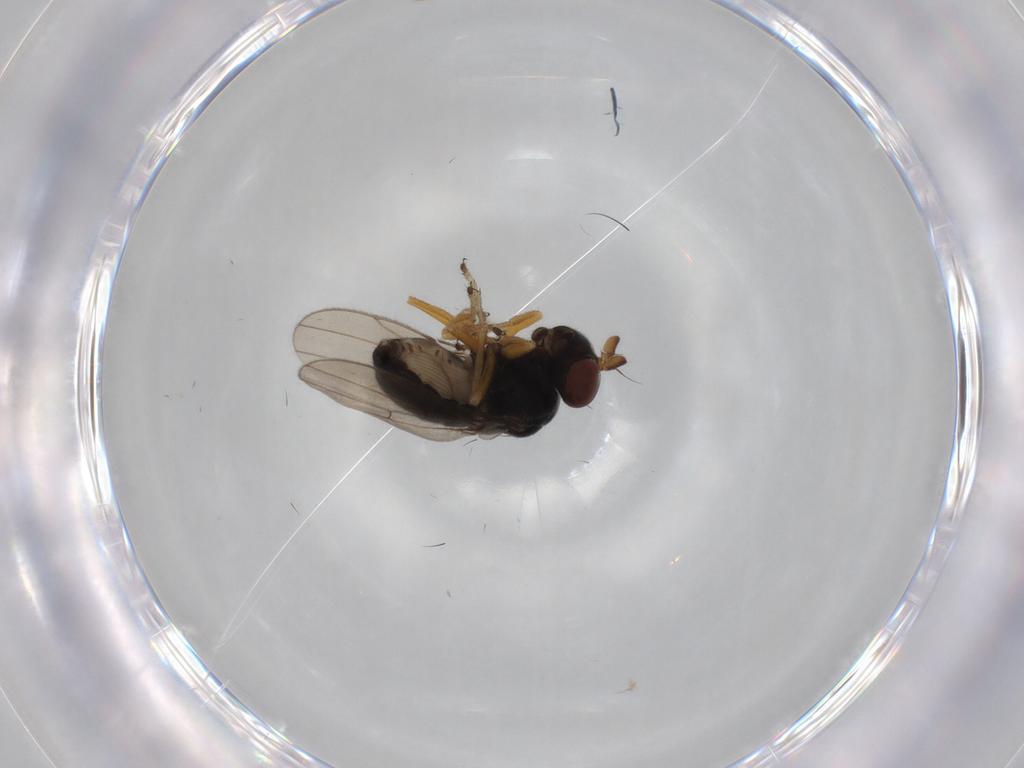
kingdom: Animalia
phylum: Arthropoda
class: Insecta
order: Diptera
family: Ephydridae
